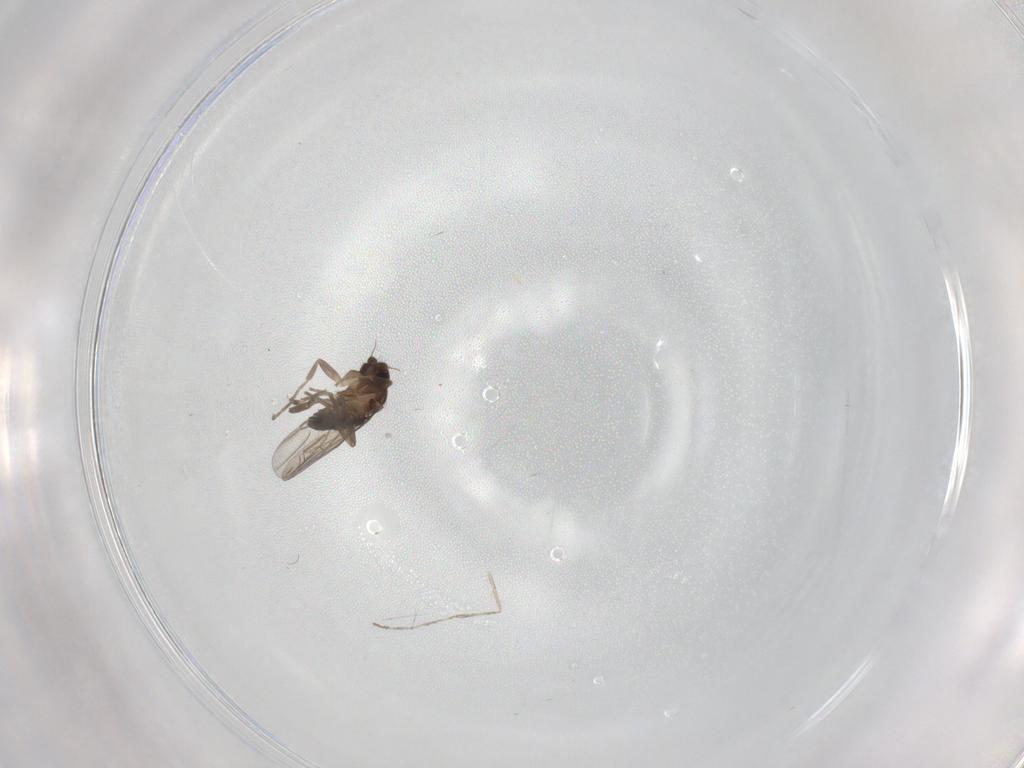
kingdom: Animalia
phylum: Arthropoda
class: Insecta
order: Diptera
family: Phoridae
